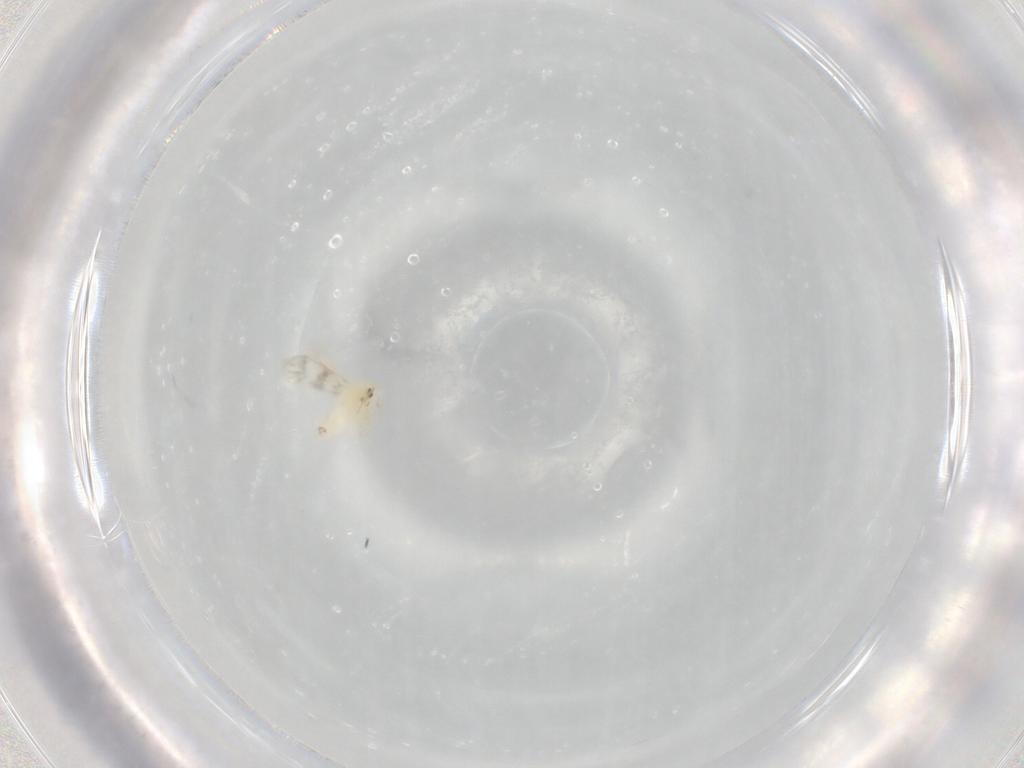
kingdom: Animalia
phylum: Arthropoda
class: Insecta
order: Hemiptera
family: Aleyrodidae
